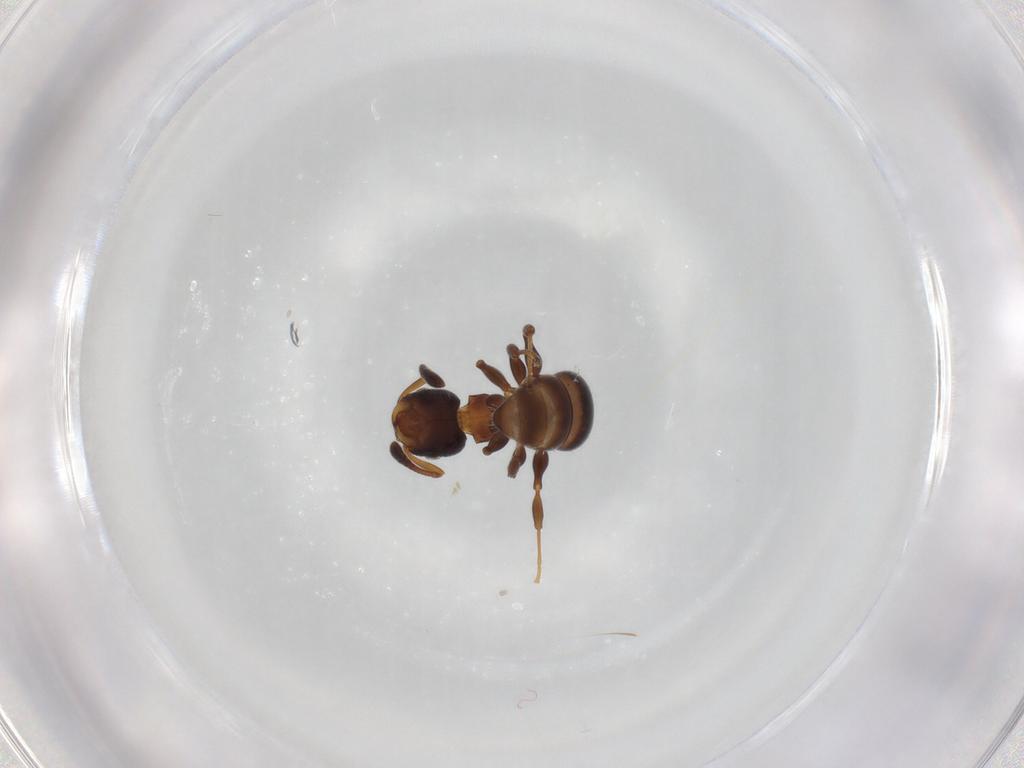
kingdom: Animalia
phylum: Arthropoda
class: Insecta
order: Hymenoptera
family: Formicidae
